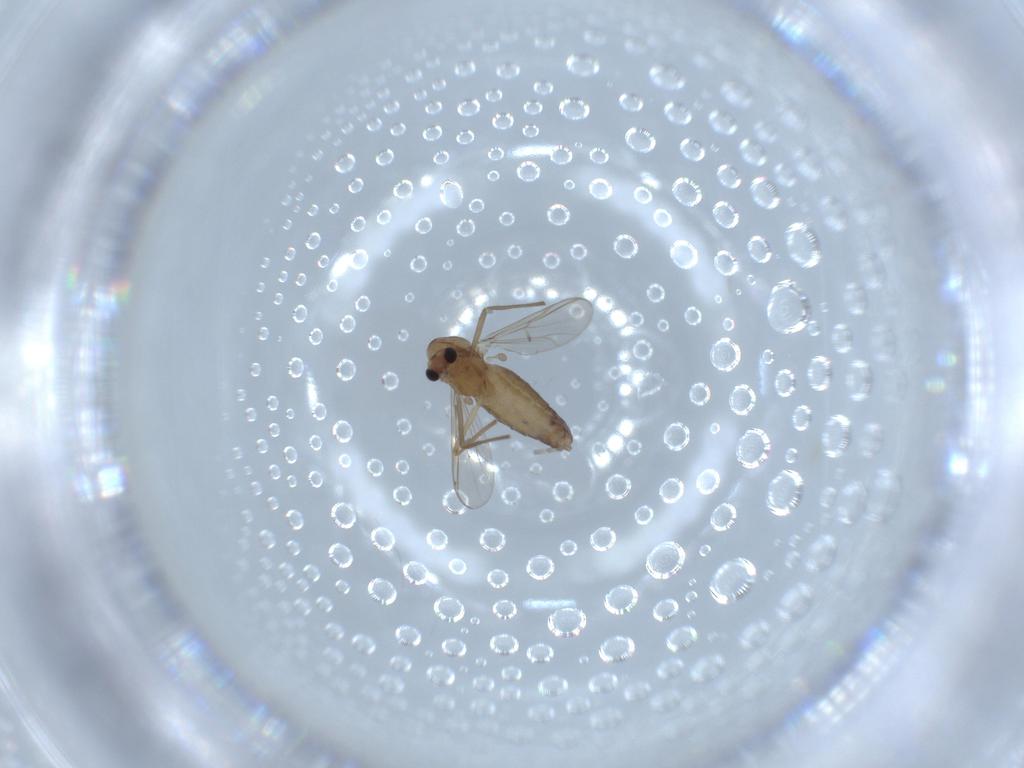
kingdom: Animalia
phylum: Arthropoda
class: Insecta
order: Diptera
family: Chironomidae
